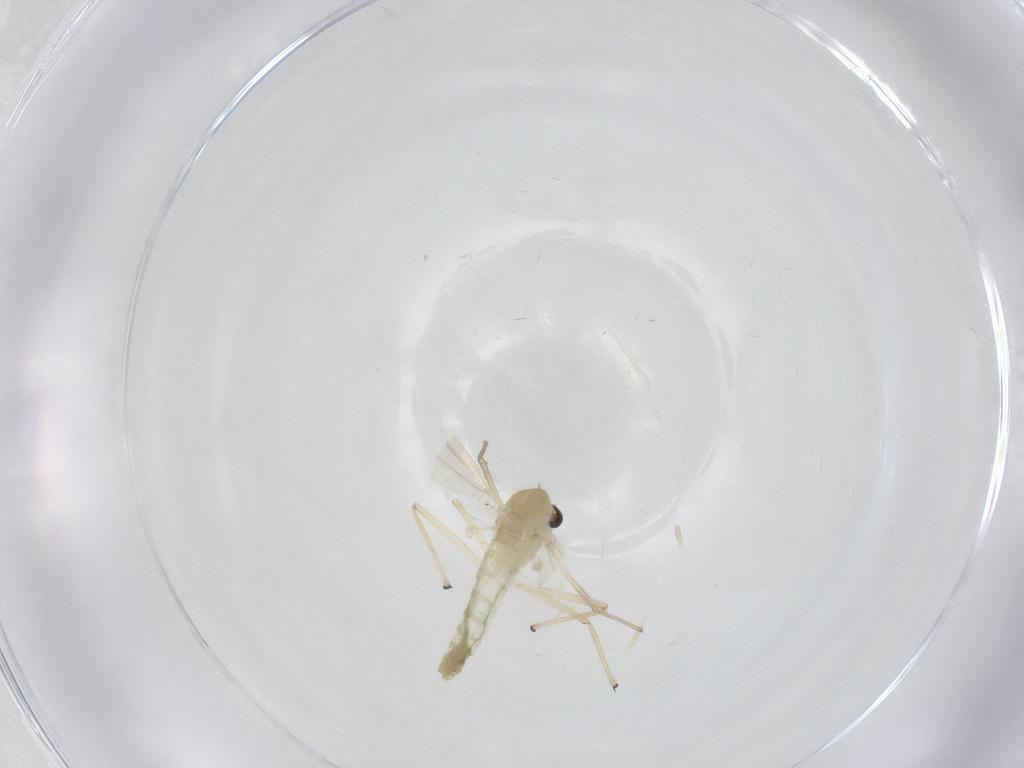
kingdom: Animalia
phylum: Arthropoda
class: Insecta
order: Diptera
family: Chironomidae
